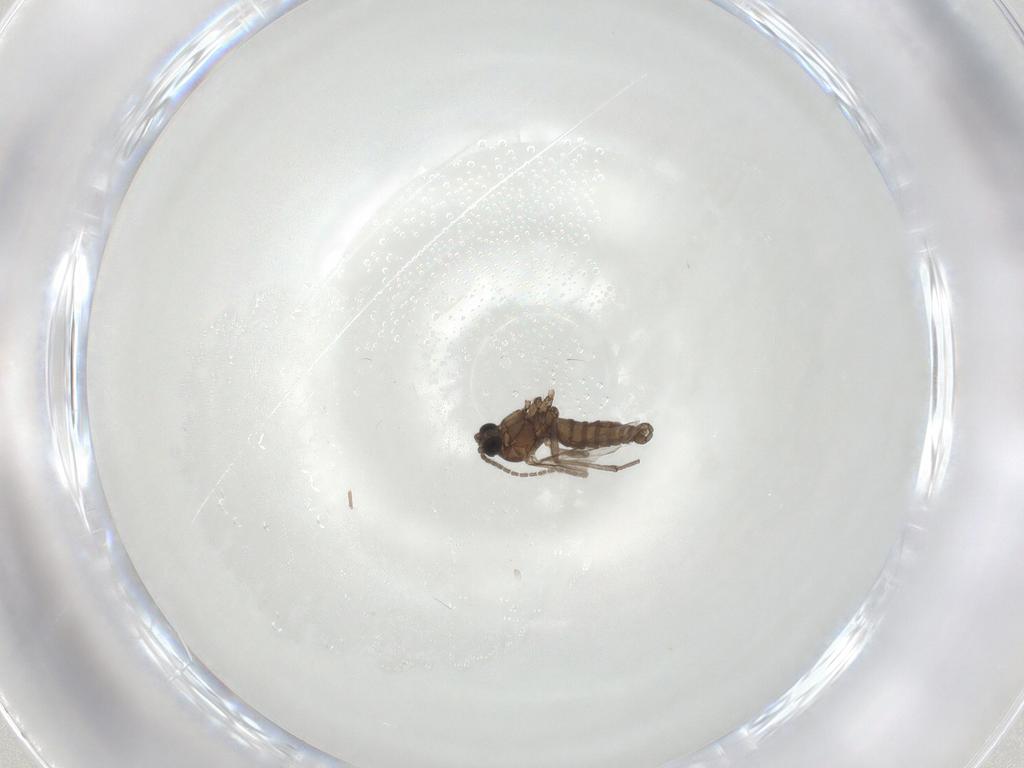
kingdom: Animalia
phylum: Arthropoda
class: Insecta
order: Diptera
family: Sciaridae
